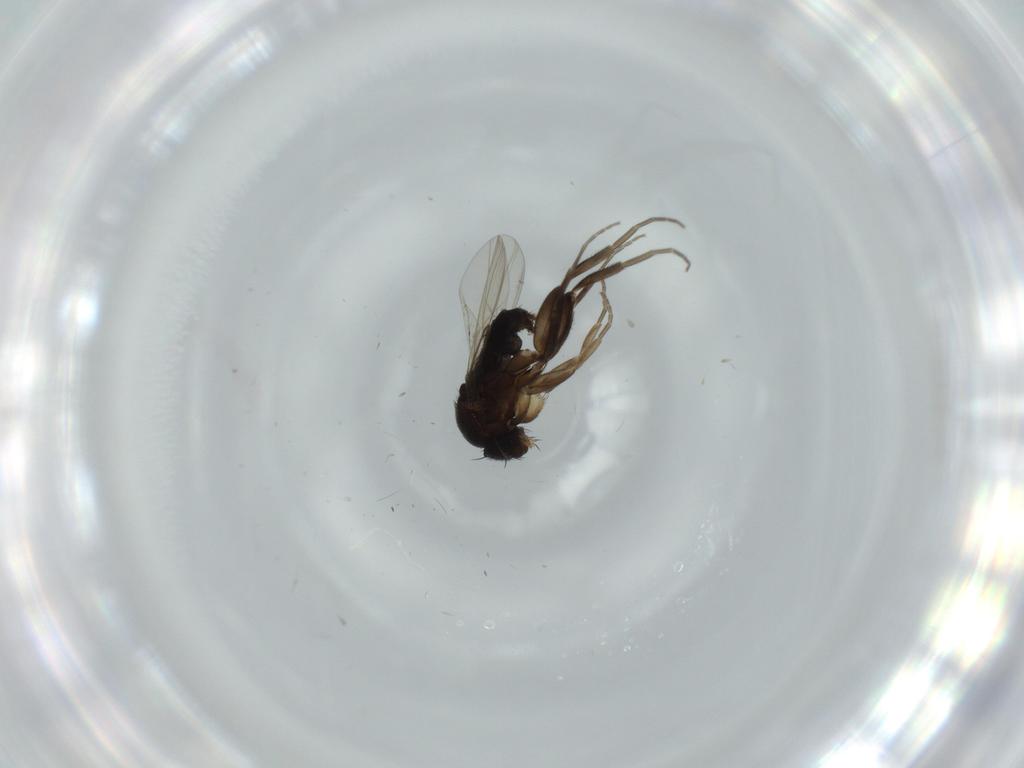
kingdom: Animalia
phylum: Arthropoda
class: Insecta
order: Diptera
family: Phoridae
